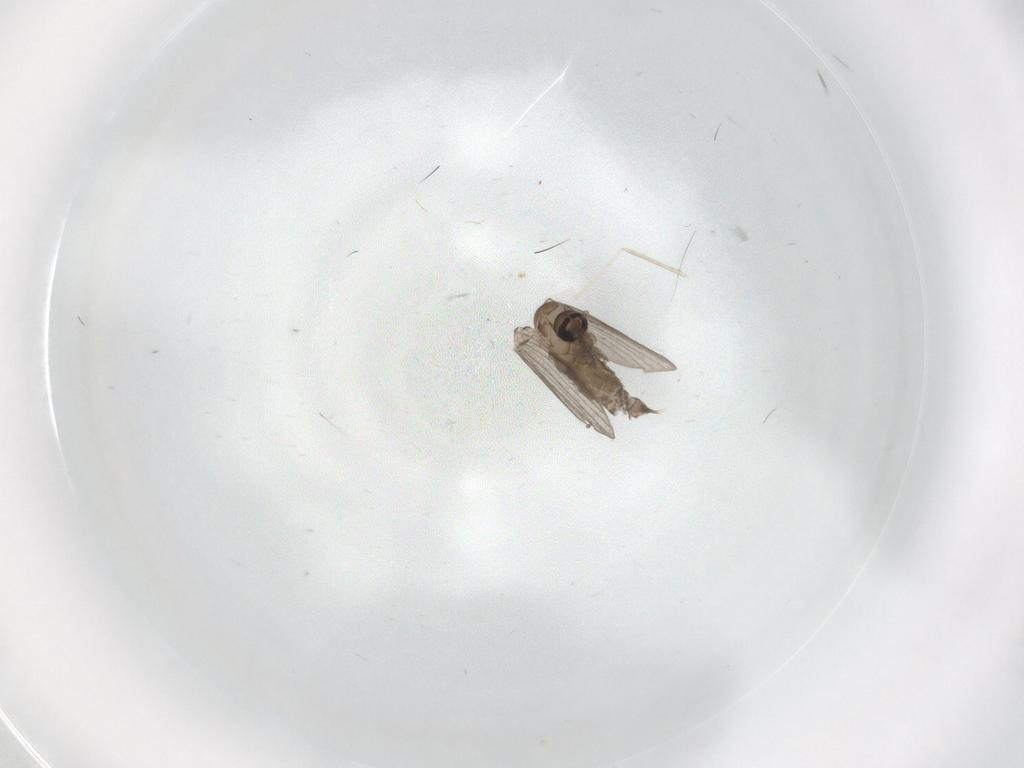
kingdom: Animalia
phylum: Arthropoda
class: Insecta
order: Diptera
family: Psychodidae
